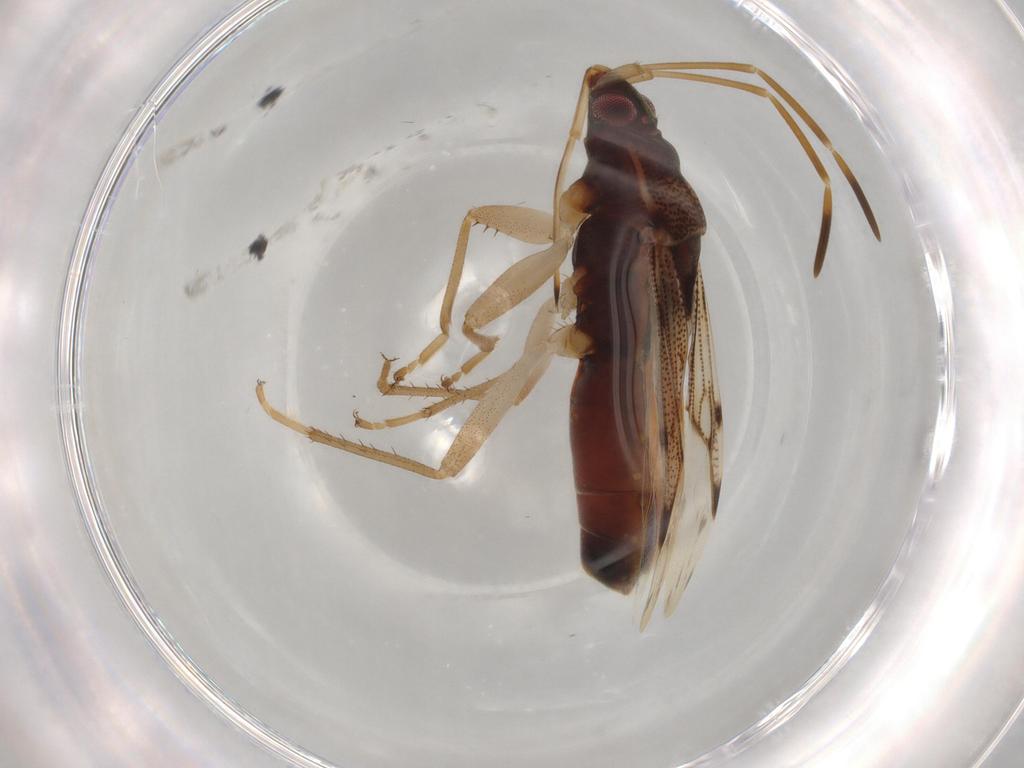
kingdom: Animalia
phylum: Arthropoda
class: Insecta
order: Hemiptera
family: Rhyparochromidae
